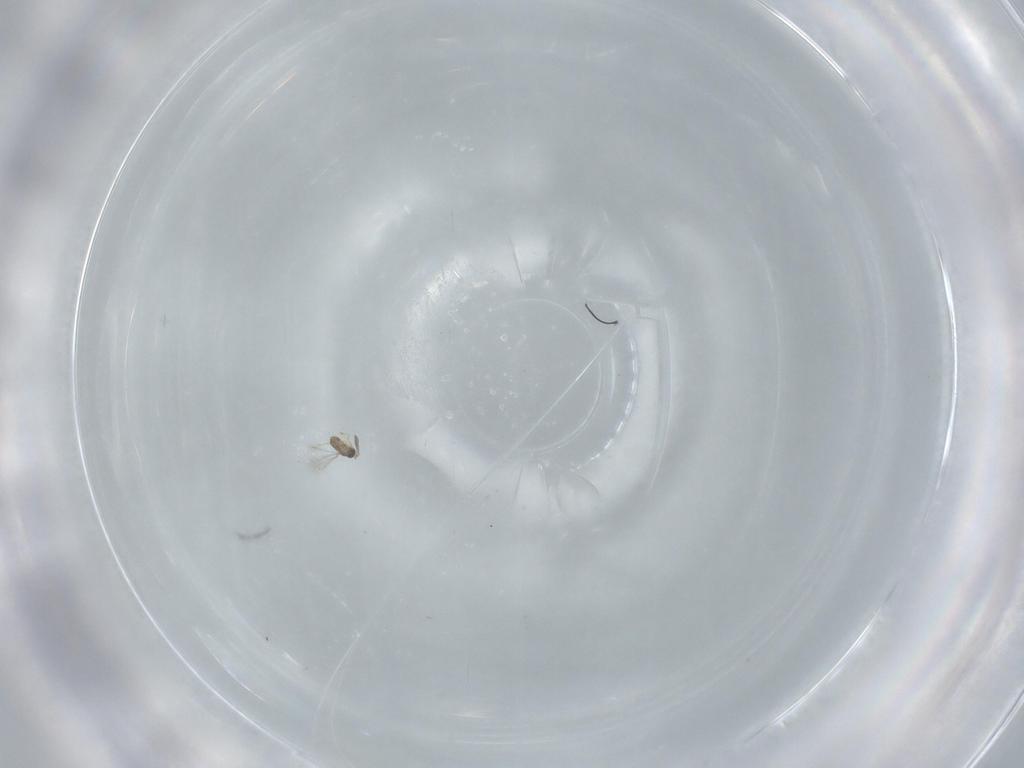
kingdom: Animalia
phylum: Arthropoda
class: Insecta
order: Hymenoptera
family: Mymaridae
